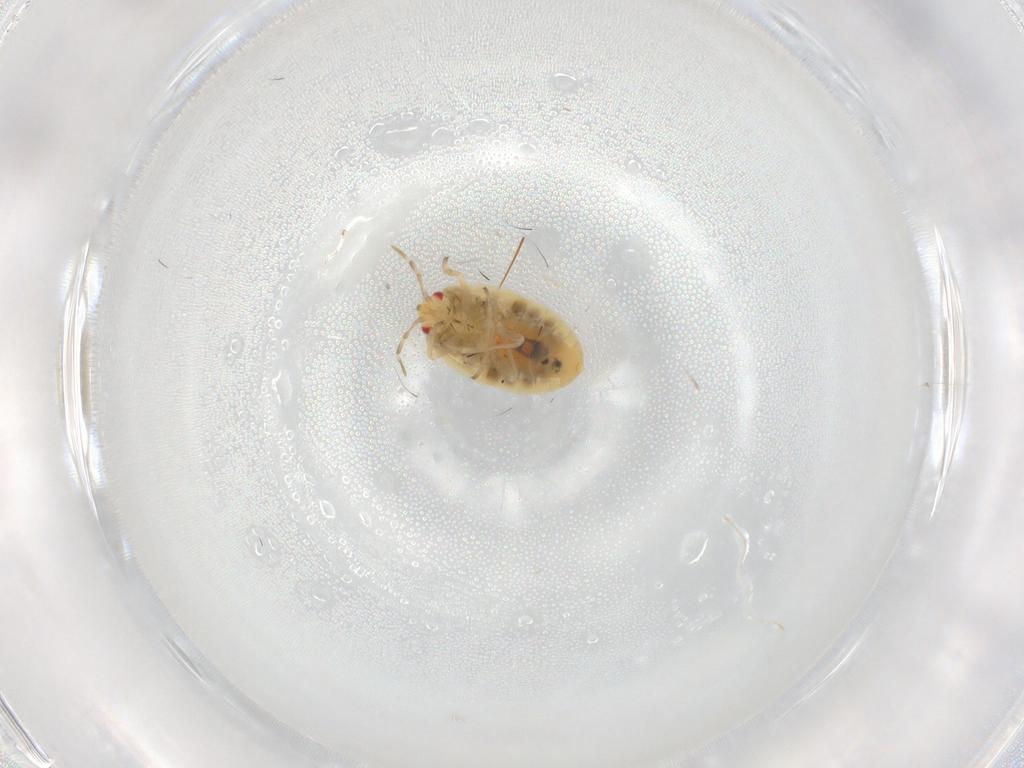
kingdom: Animalia
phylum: Arthropoda
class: Insecta
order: Hemiptera
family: Anthocoridae
